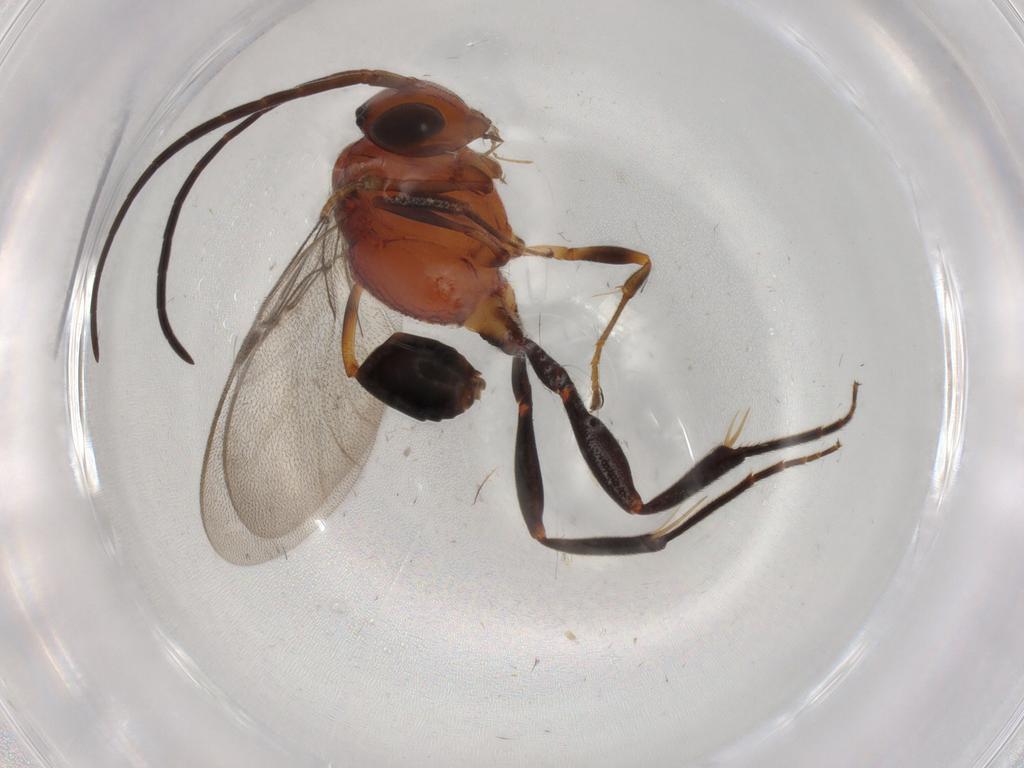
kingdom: Animalia
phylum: Arthropoda
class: Insecta
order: Hymenoptera
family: Evaniidae
